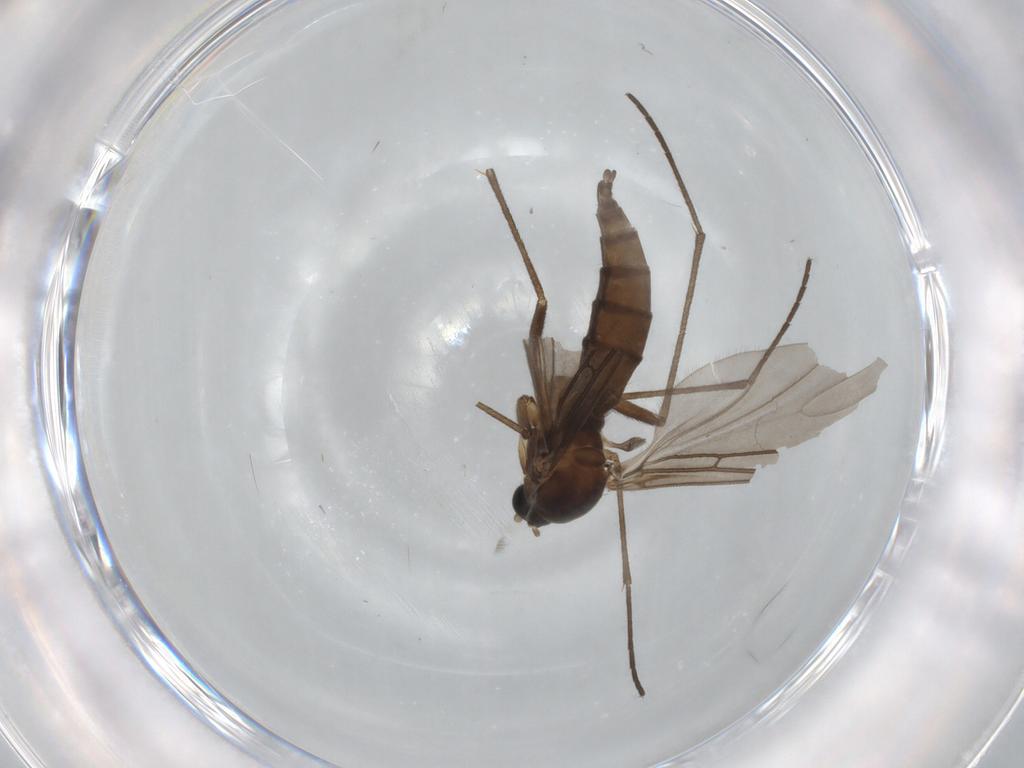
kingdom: Animalia
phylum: Arthropoda
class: Insecta
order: Diptera
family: Sciaridae
